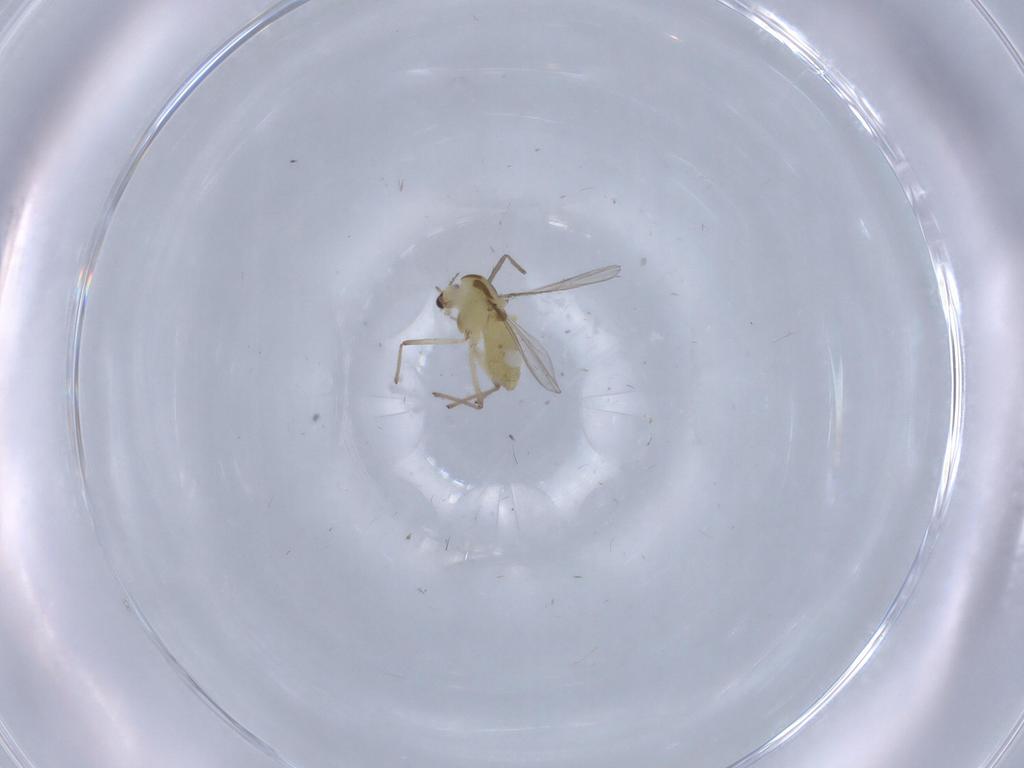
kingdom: Animalia
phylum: Arthropoda
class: Insecta
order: Diptera
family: Chironomidae
